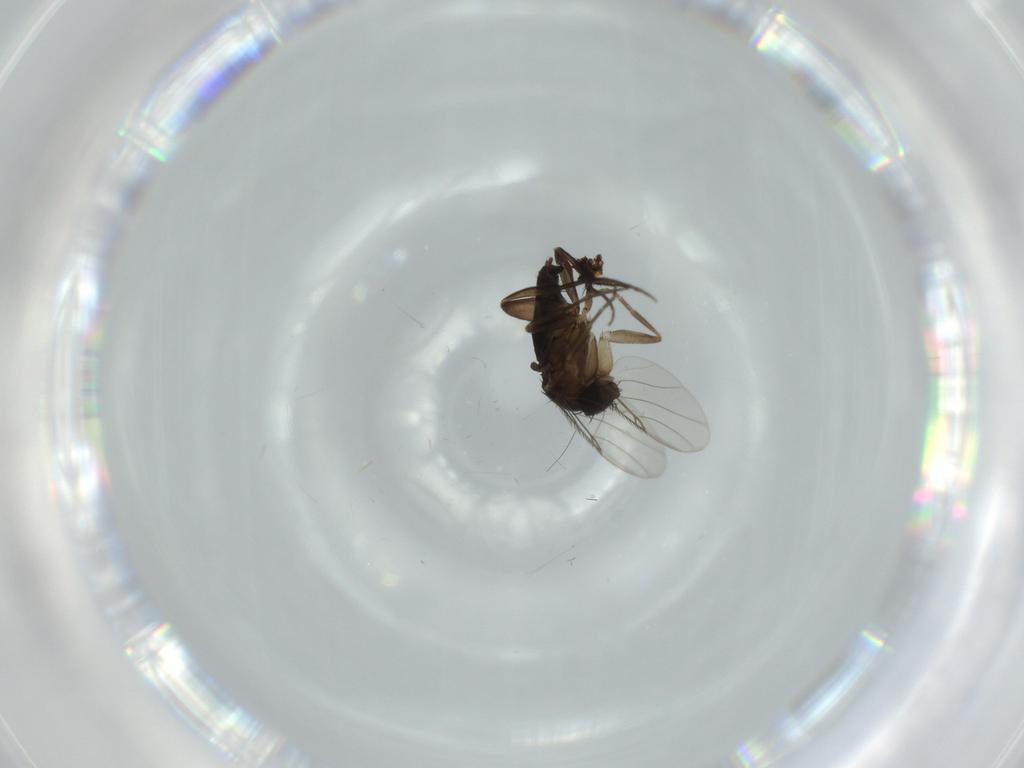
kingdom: Animalia
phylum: Arthropoda
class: Insecta
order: Diptera
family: Phoridae
